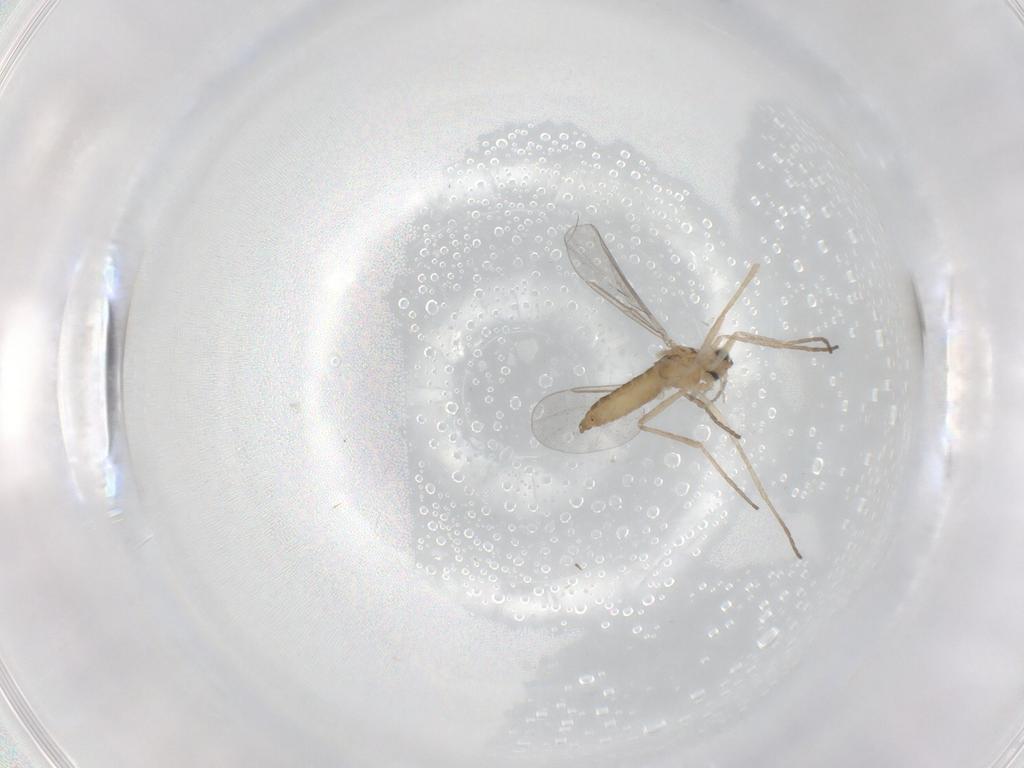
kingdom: Animalia
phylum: Arthropoda
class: Insecta
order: Diptera
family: Cecidomyiidae
